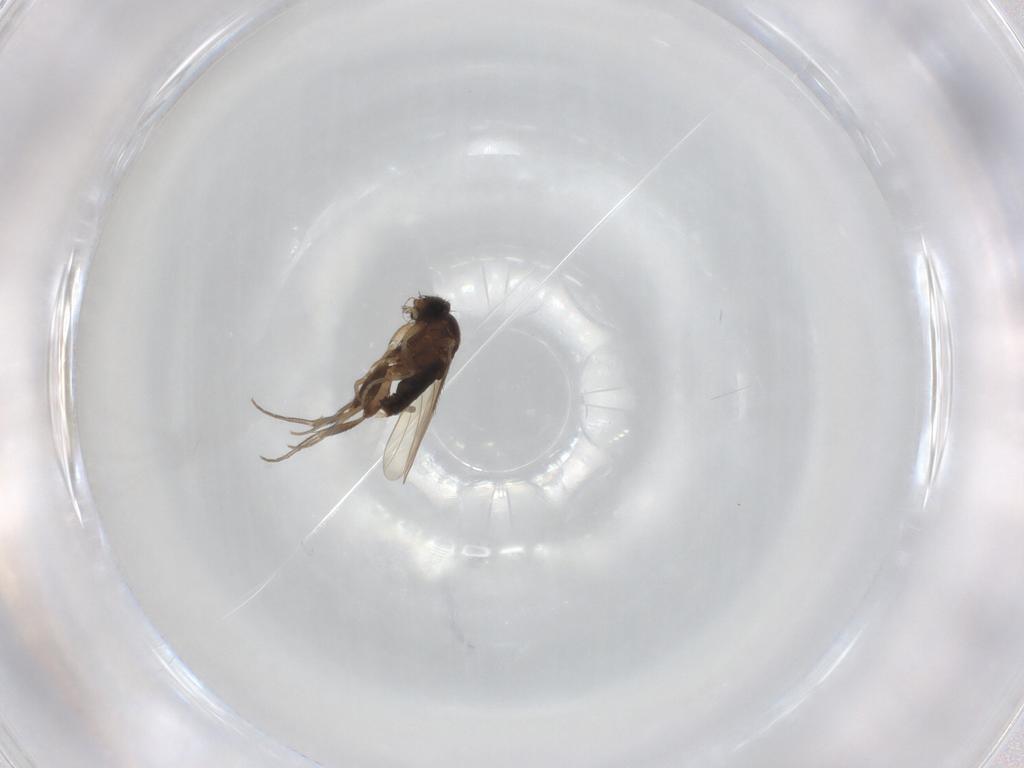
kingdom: Animalia
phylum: Arthropoda
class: Insecta
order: Diptera
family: Phoridae
